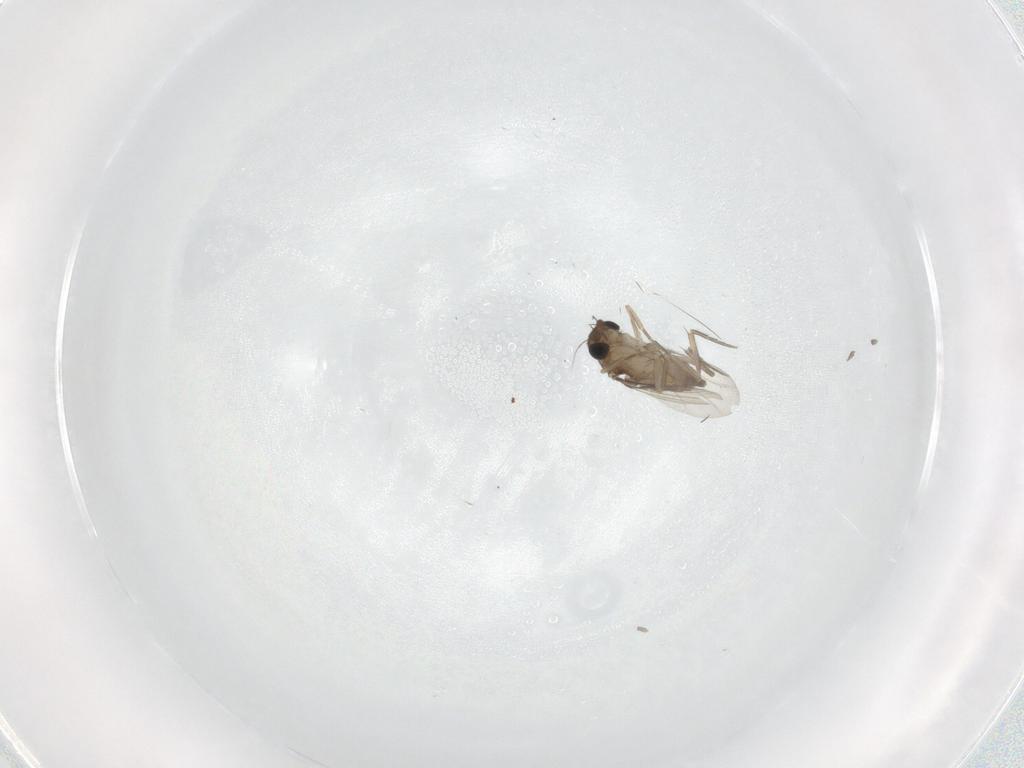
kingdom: Animalia
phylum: Arthropoda
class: Insecta
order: Diptera
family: Phoridae
